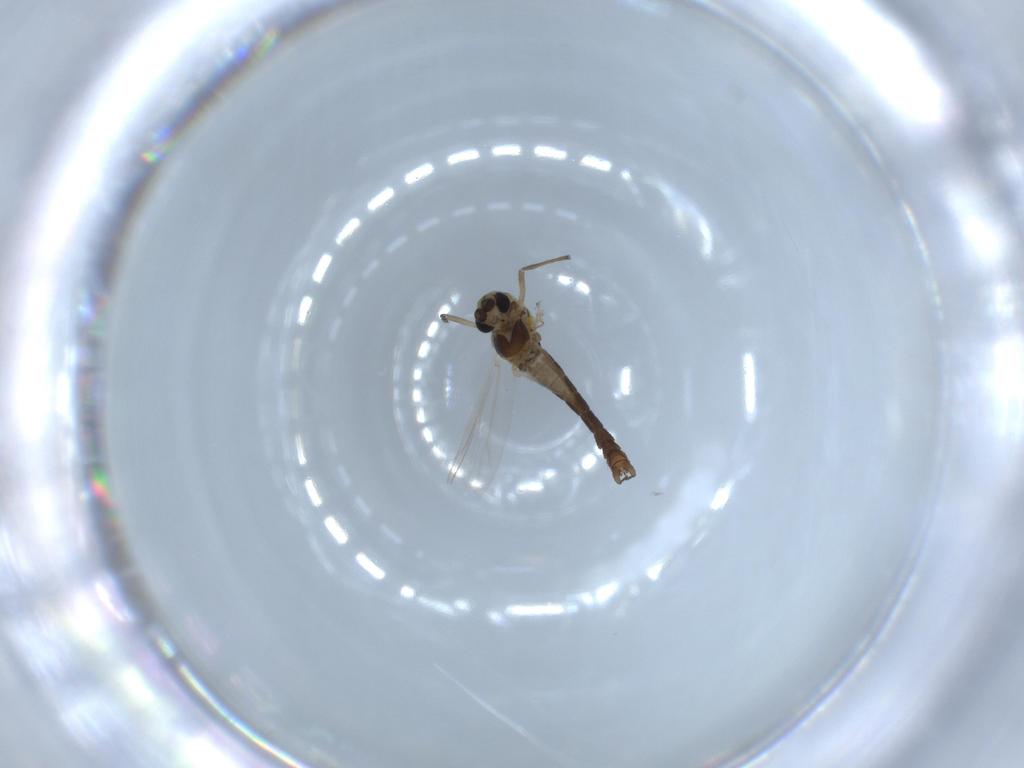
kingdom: Animalia
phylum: Arthropoda
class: Insecta
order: Diptera
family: Chironomidae
